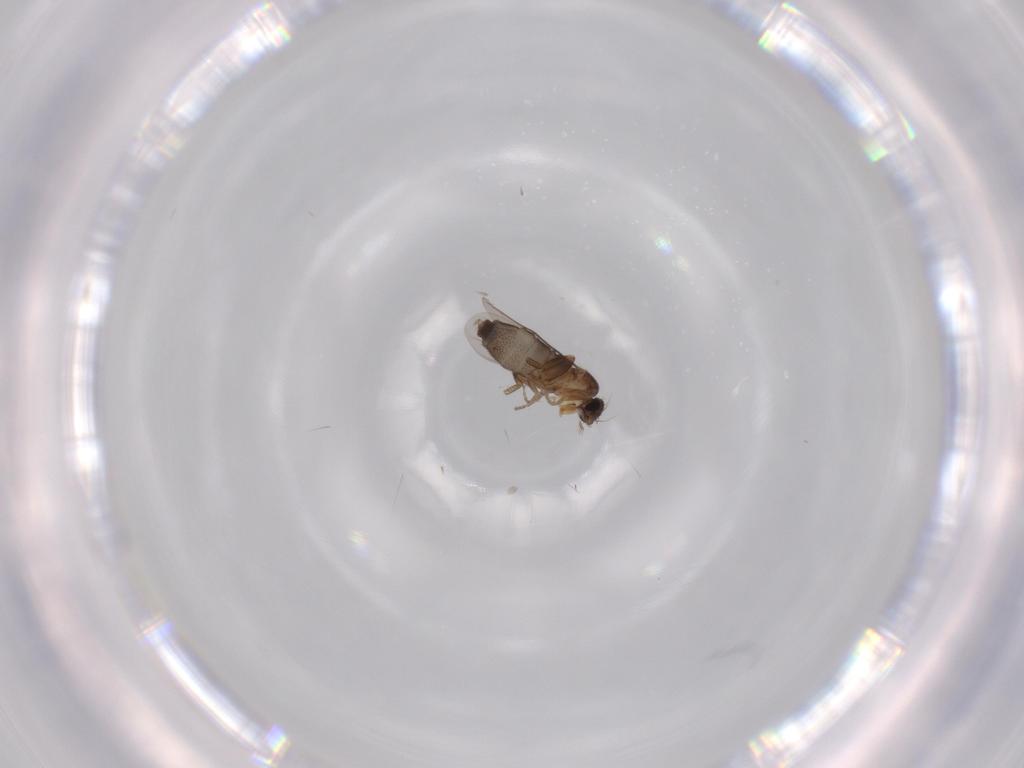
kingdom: Animalia
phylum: Arthropoda
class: Insecta
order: Diptera
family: Phoridae
